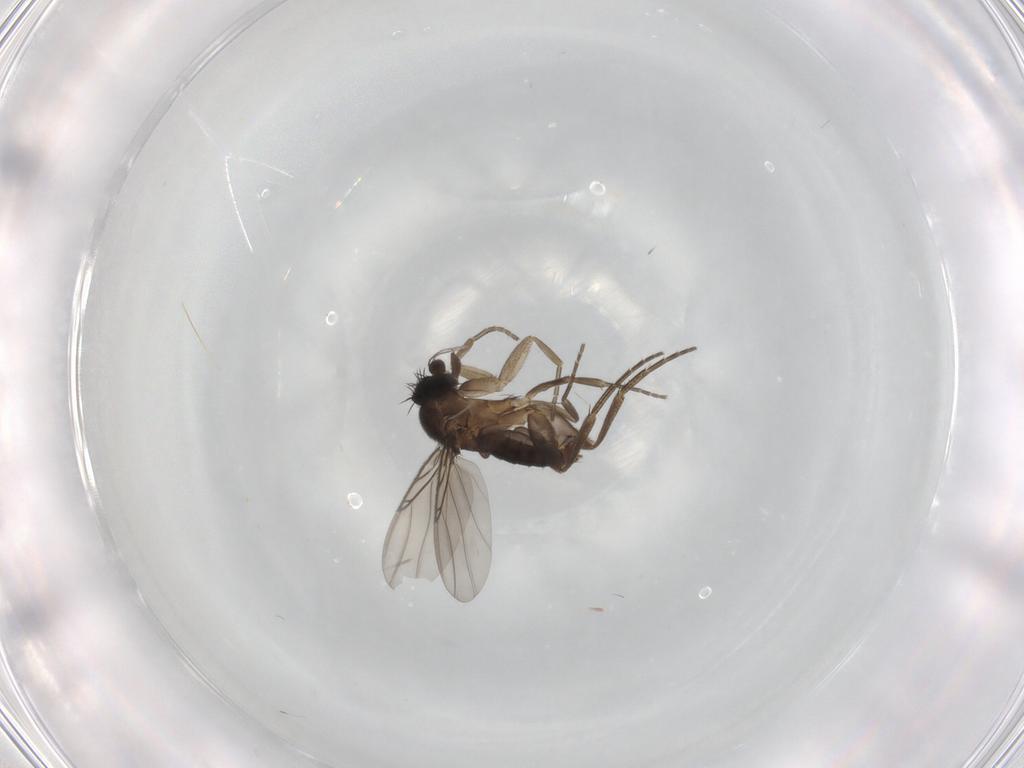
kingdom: Animalia
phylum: Arthropoda
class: Insecta
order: Diptera
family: Phoridae
